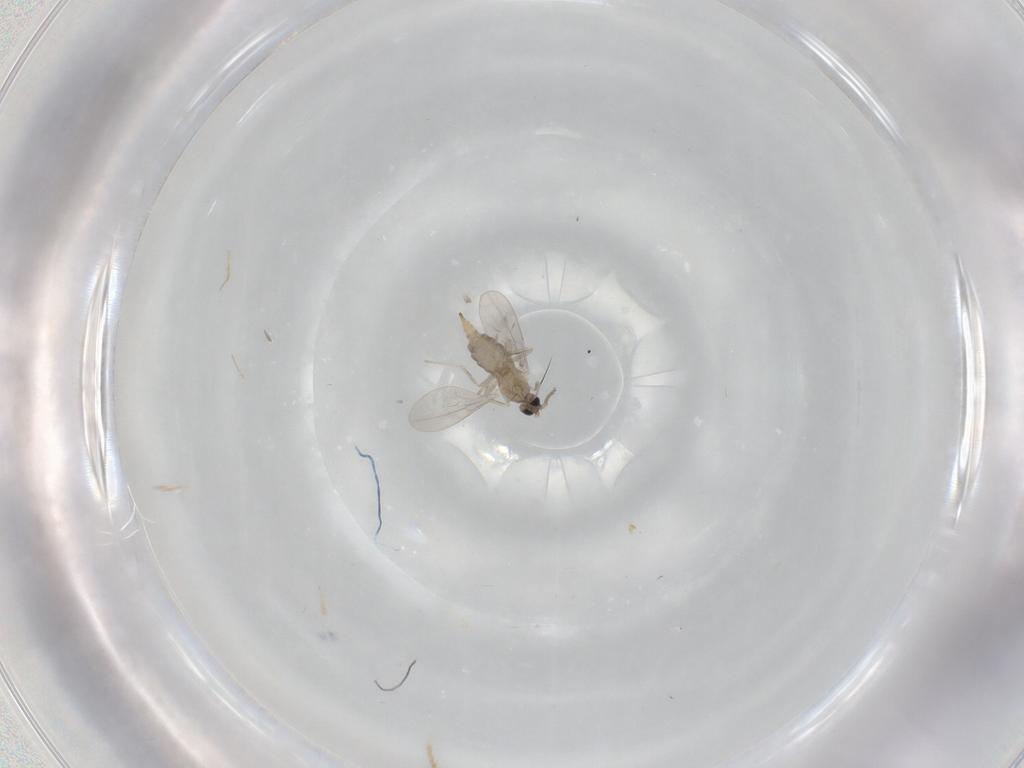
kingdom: Animalia
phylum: Arthropoda
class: Insecta
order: Diptera
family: Cecidomyiidae
